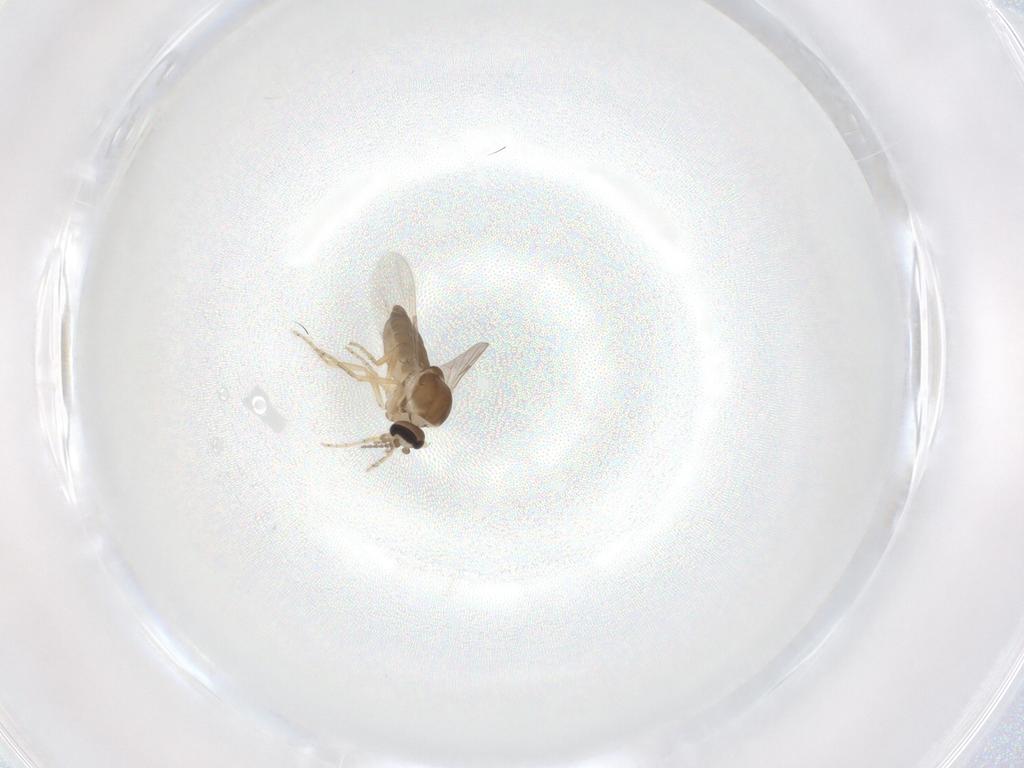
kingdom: Animalia
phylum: Arthropoda
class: Insecta
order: Diptera
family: Ceratopogonidae
